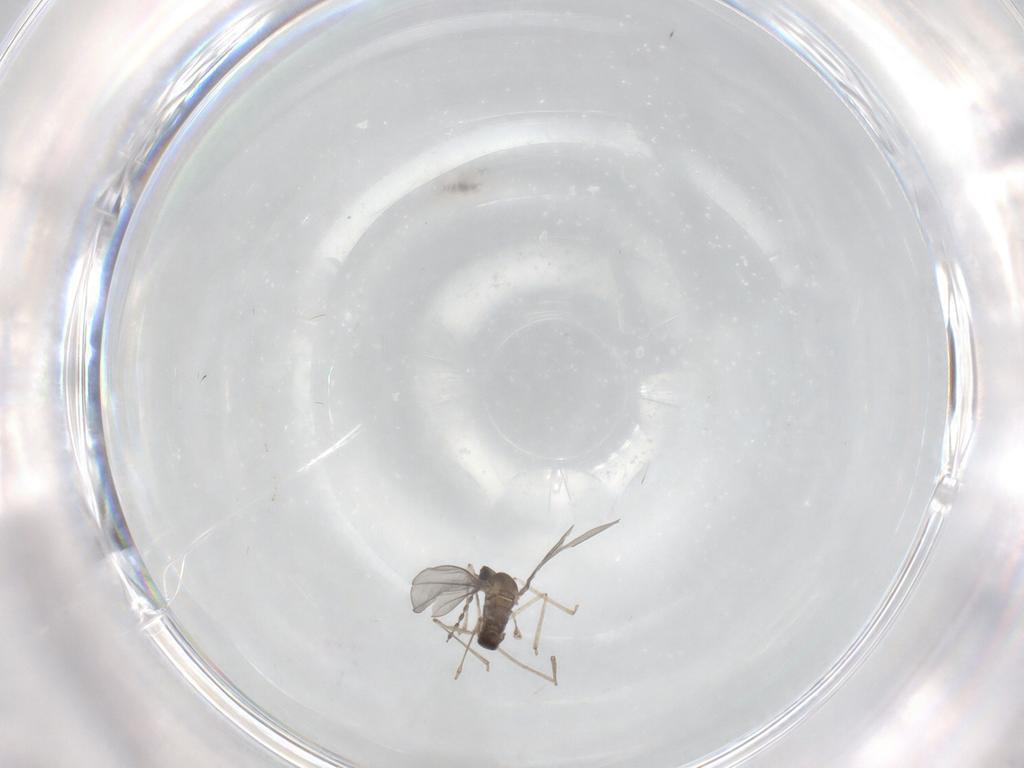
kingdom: Animalia
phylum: Arthropoda
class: Insecta
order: Diptera
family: Cecidomyiidae
